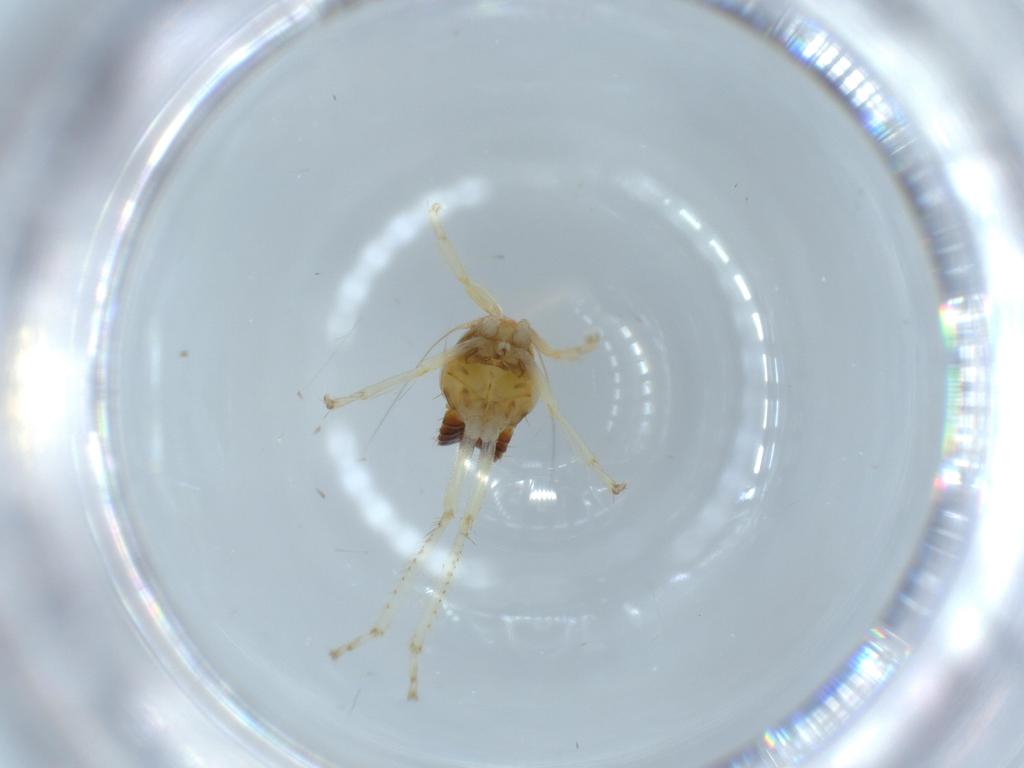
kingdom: Animalia
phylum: Arthropoda
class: Insecta
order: Hemiptera
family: Cicadellidae
